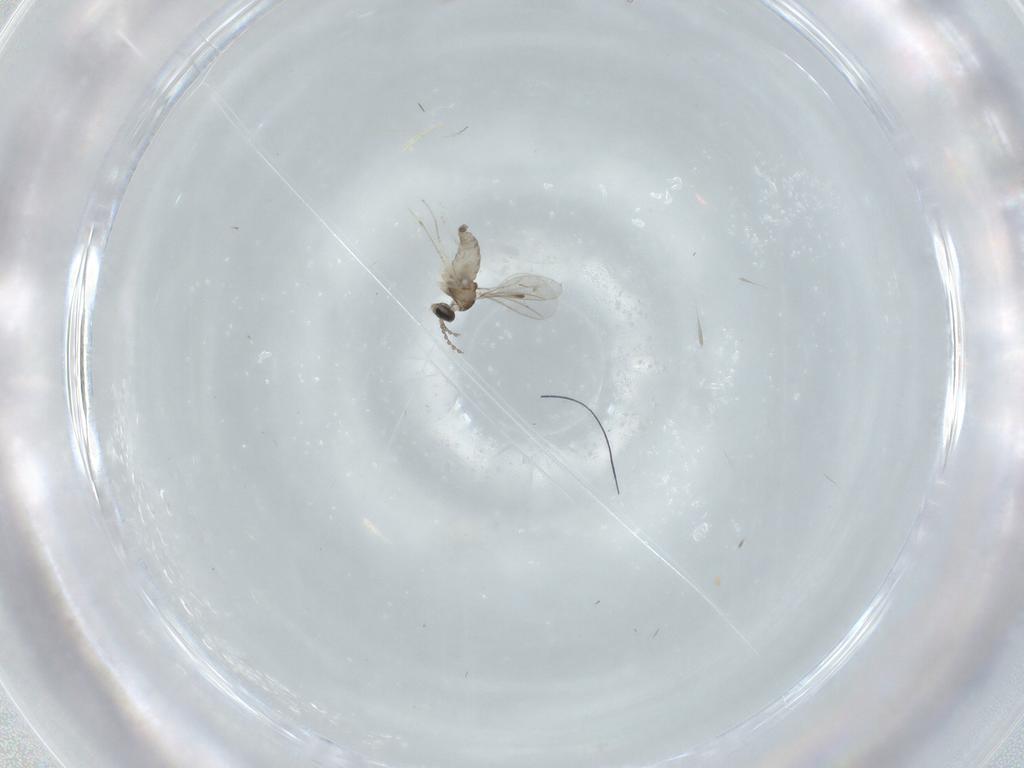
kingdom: Animalia
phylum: Arthropoda
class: Insecta
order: Diptera
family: Cecidomyiidae
